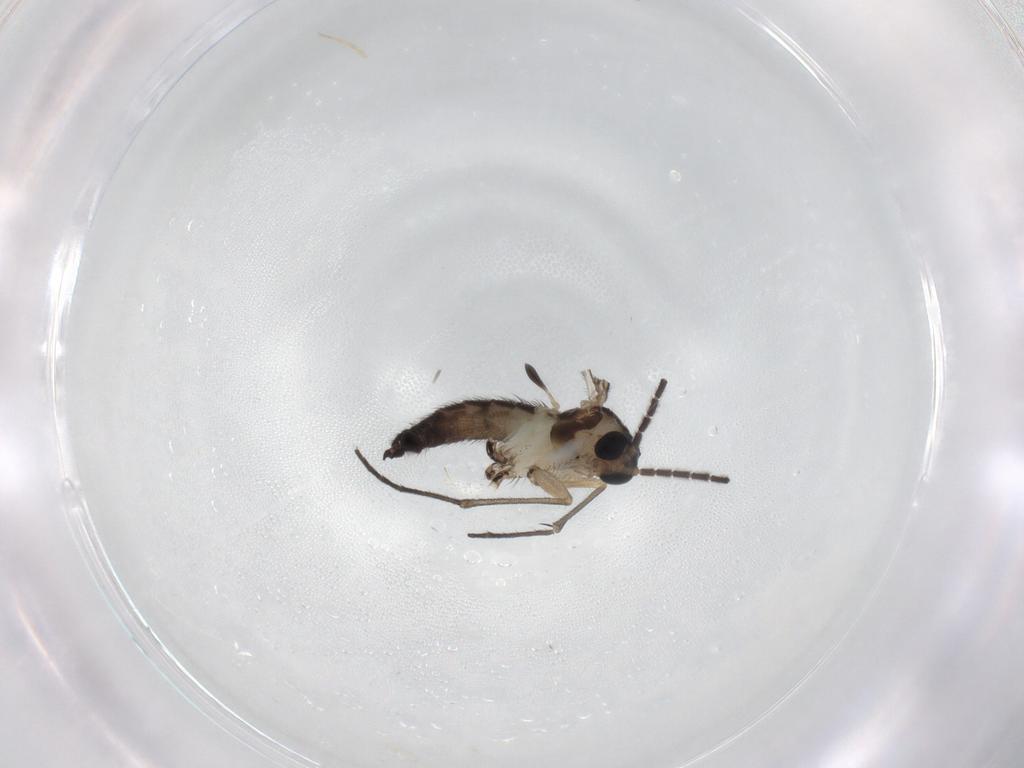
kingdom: Animalia
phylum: Arthropoda
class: Insecta
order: Diptera
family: Sciaridae
